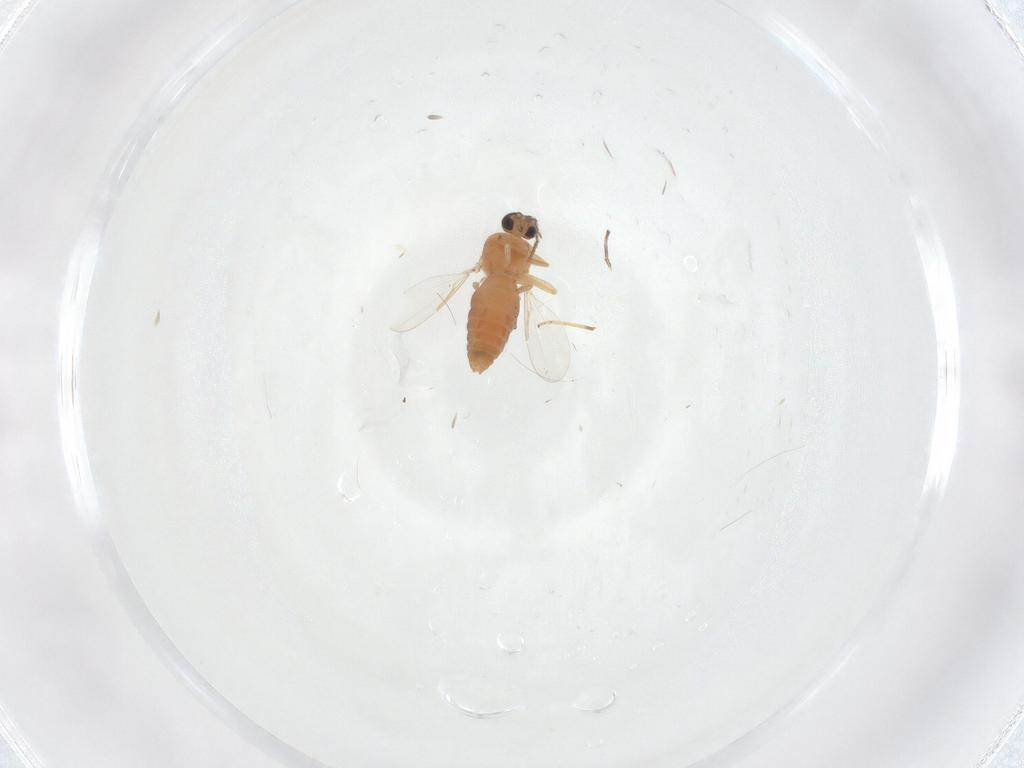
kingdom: Animalia
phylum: Arthropoda
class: Insecta
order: Diptera
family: Ceratopogonidae
